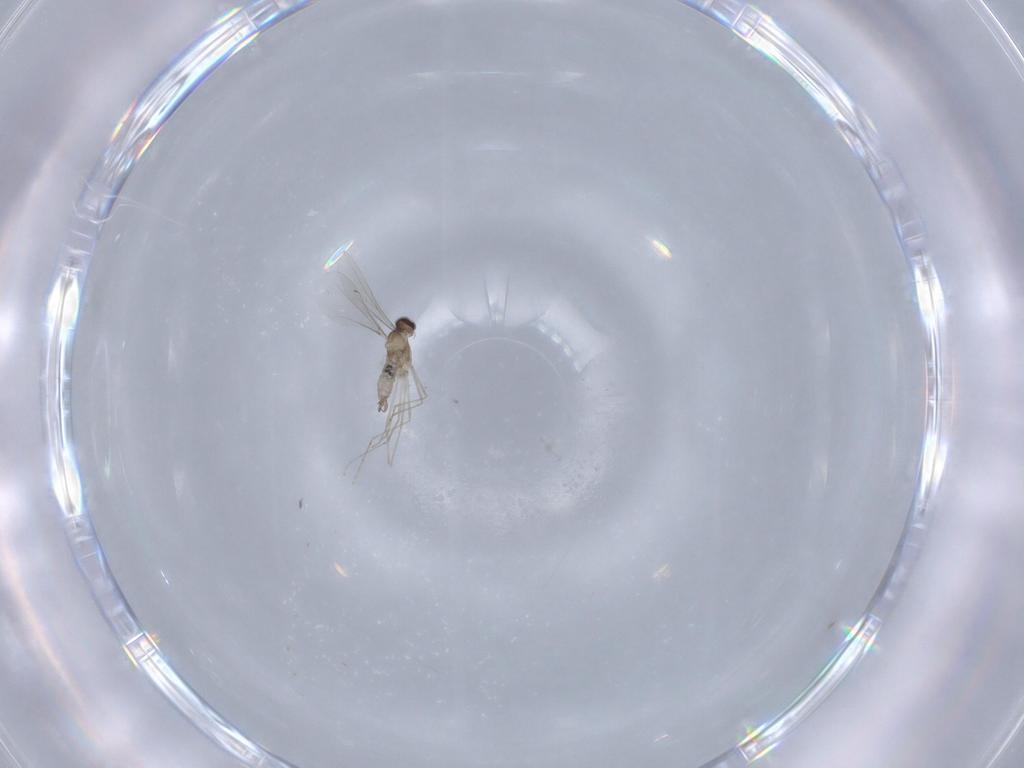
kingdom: Animalia
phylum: Arthropoda
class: Insecta
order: Diptera
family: Cecidomyiidae
